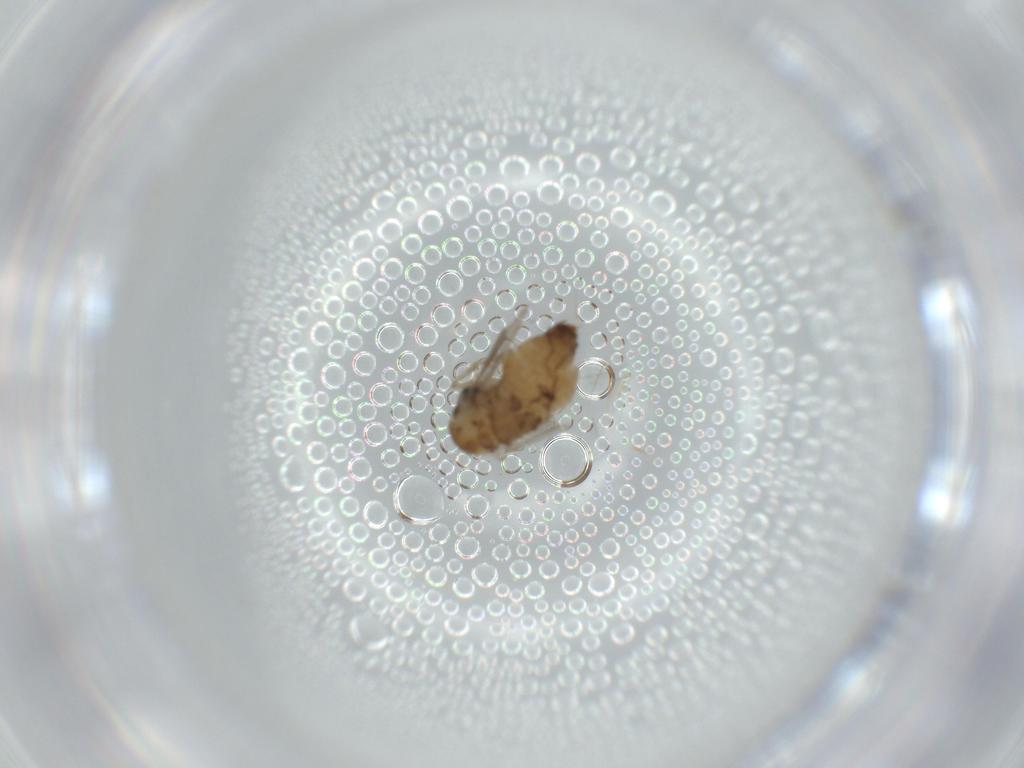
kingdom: Animalia
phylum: Arthropoda
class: Insecta
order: Diptera
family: Psychodidae
